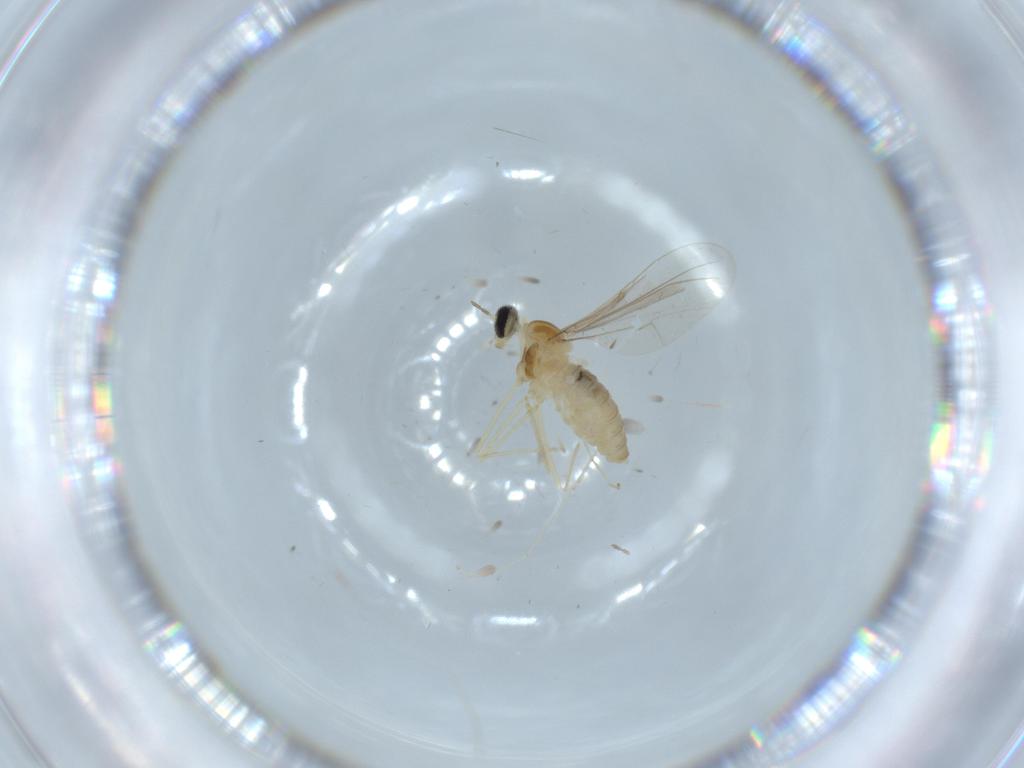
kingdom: Animalia
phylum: Arthropoda
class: Insecta
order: Diptera
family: Cecidomyiidae
